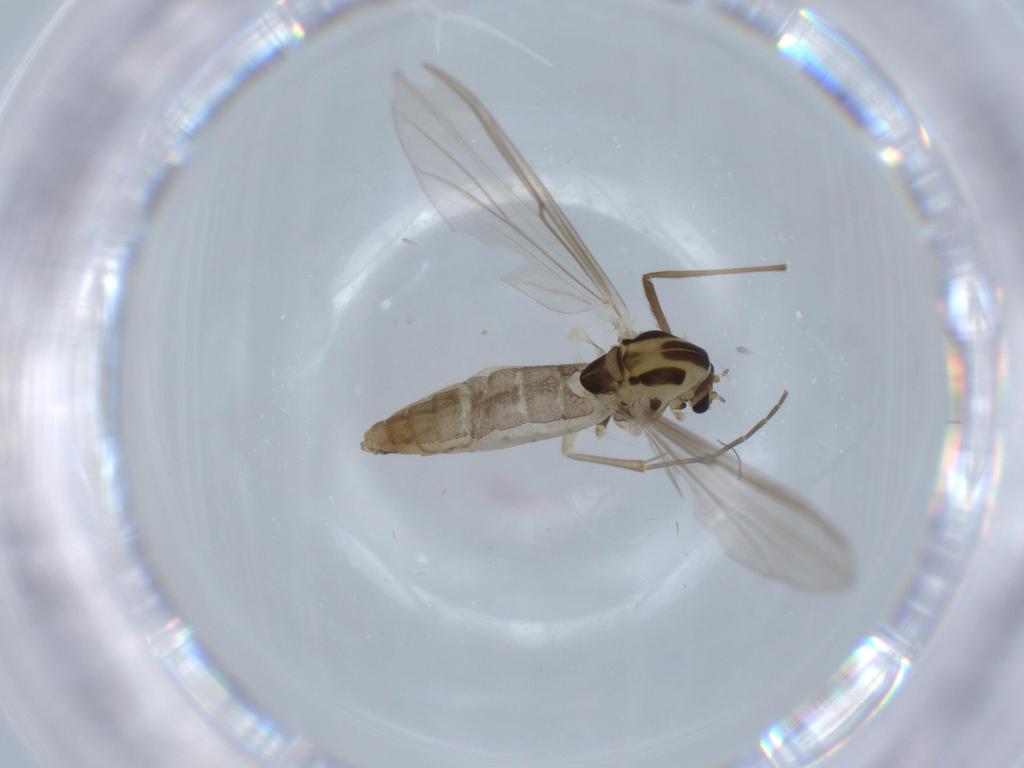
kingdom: Animalia
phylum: Arthropoda
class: Insecta
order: Diptera
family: Chironomidae
